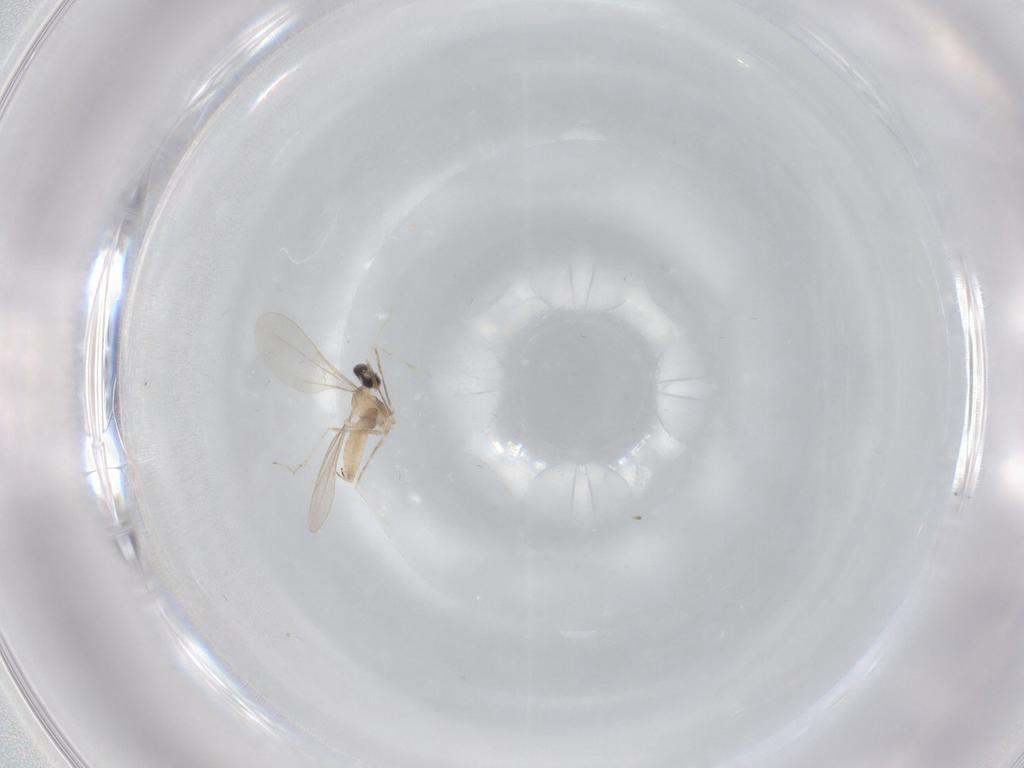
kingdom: Animalia
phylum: Arthropoda
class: Insecta
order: Diptera
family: Cecidomyiidae
